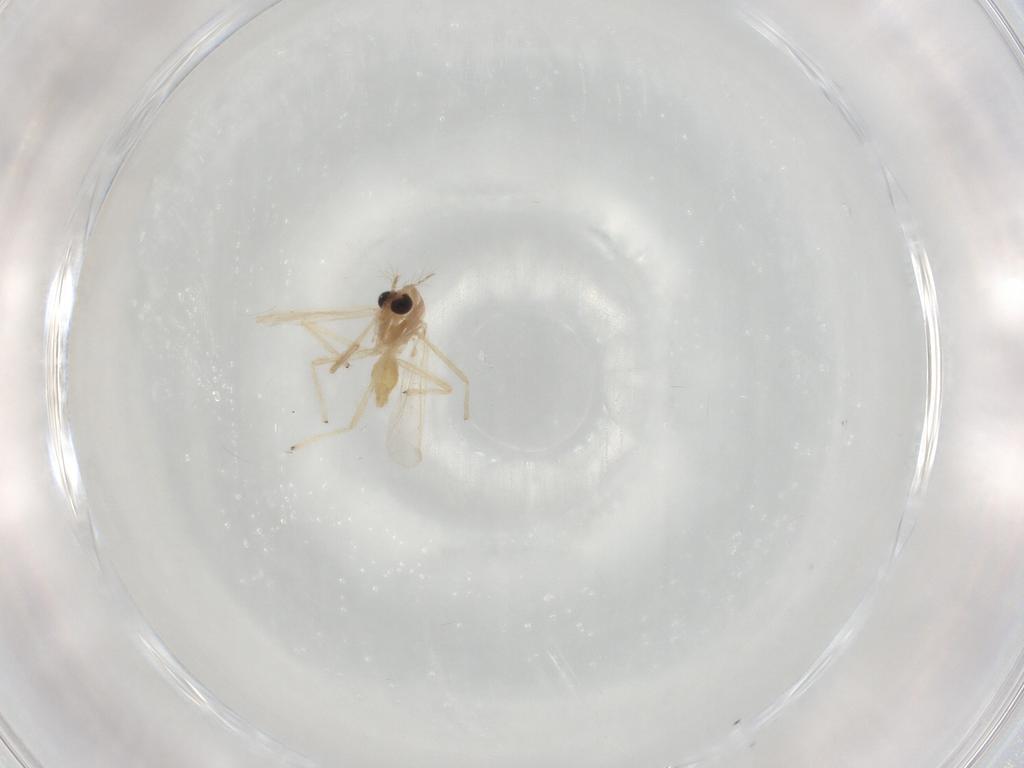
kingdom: Animalia
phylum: Arthropoda
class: Insecta
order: Diptera
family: Chironomidae
